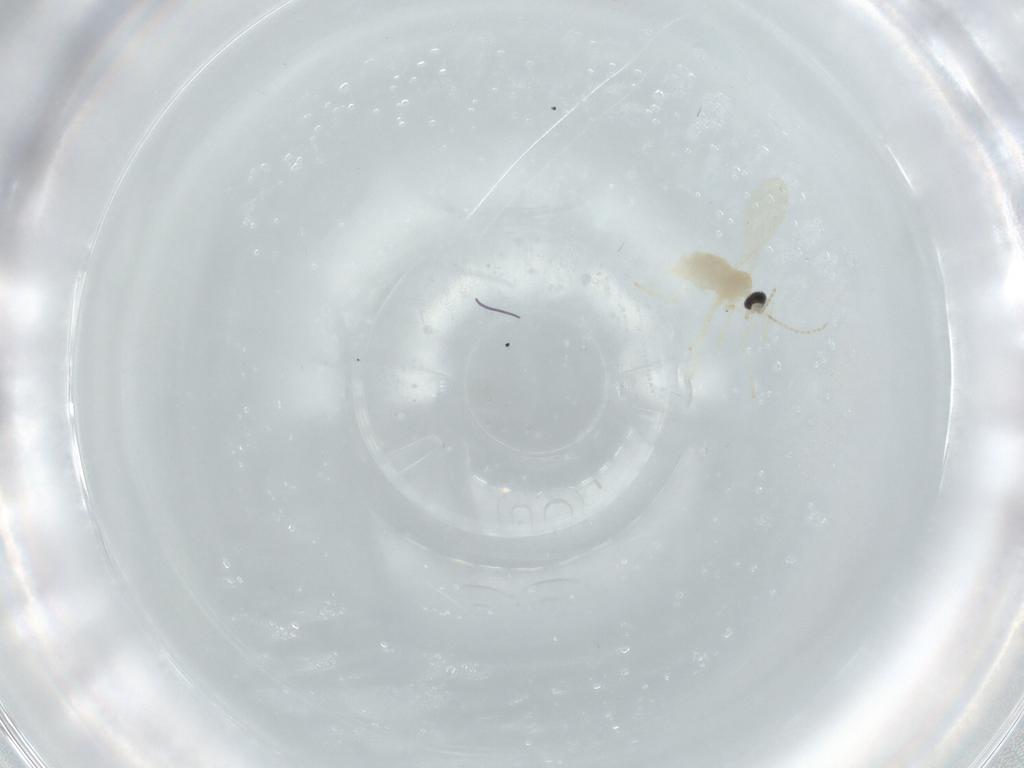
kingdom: Animalia
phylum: Arthropoda
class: Insecta
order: Diptera
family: Cecidomyiidae
